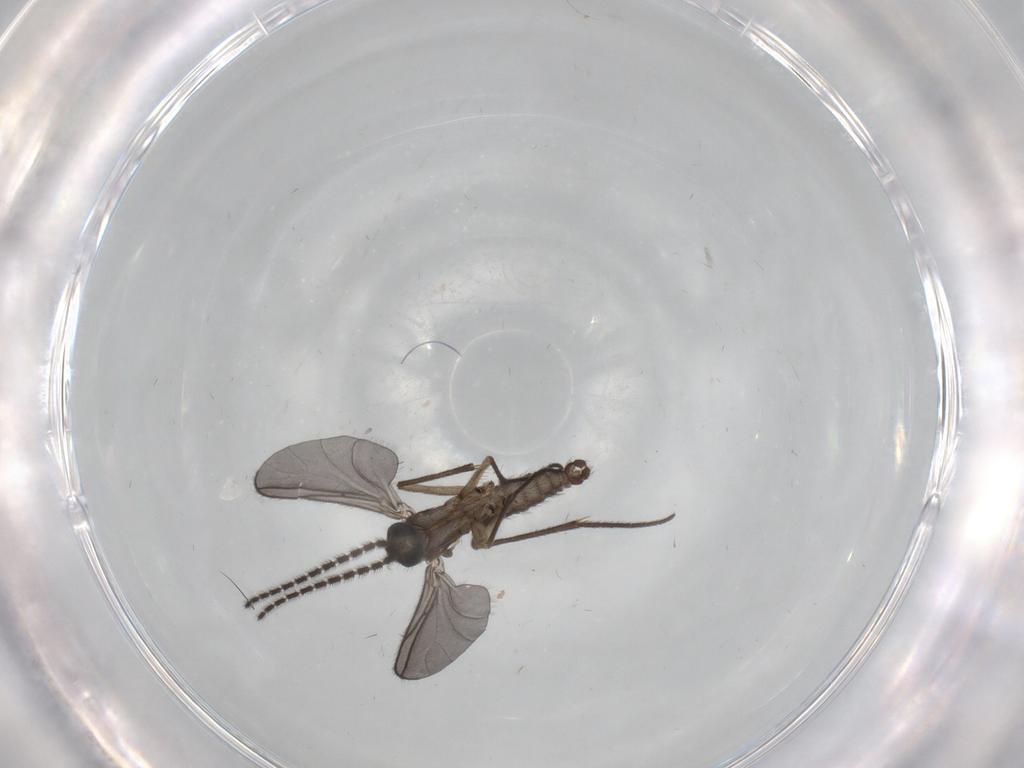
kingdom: Animalia
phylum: Arthropoda
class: Insecta
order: Diptera
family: Sciaridae
